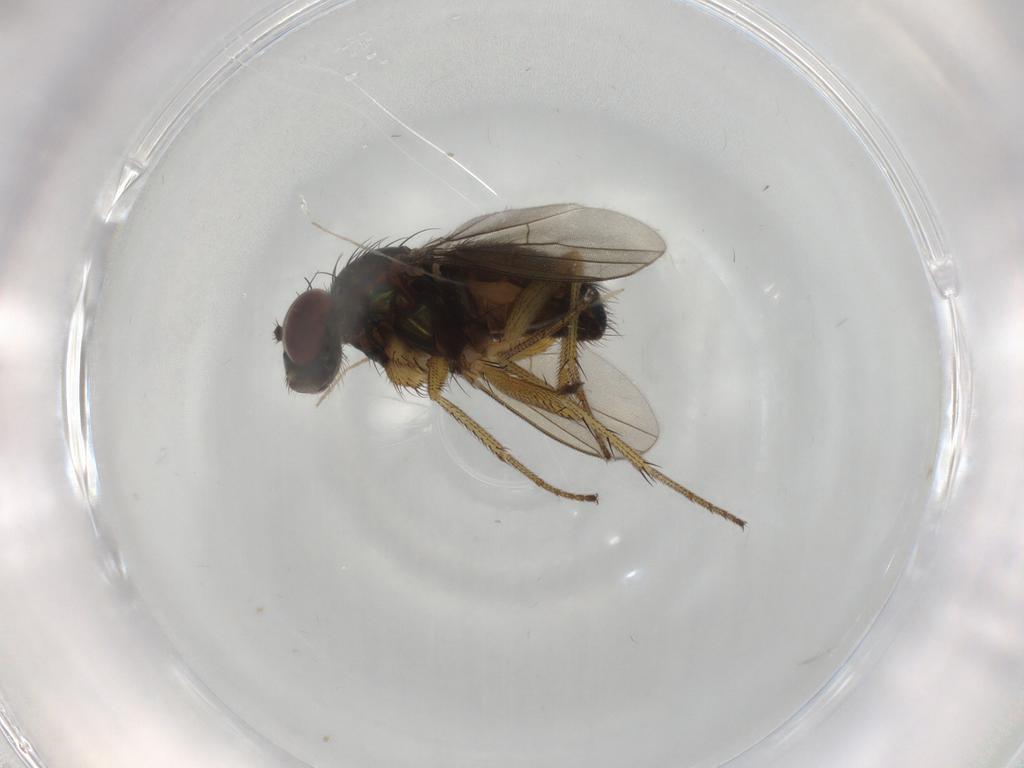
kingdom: Animalia
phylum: Arthropoda
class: Insecta
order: Diptera
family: Dolichopodidae
